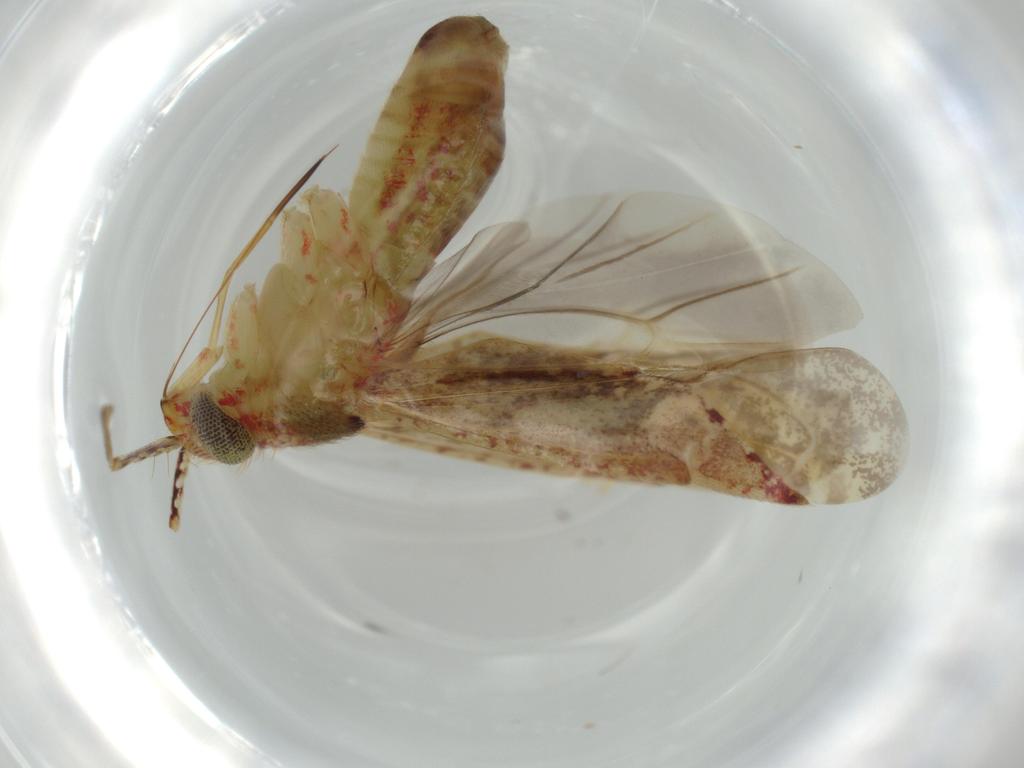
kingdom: Animalia
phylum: Arthropoda
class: Insecta
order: Hemiptera
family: Miridae
